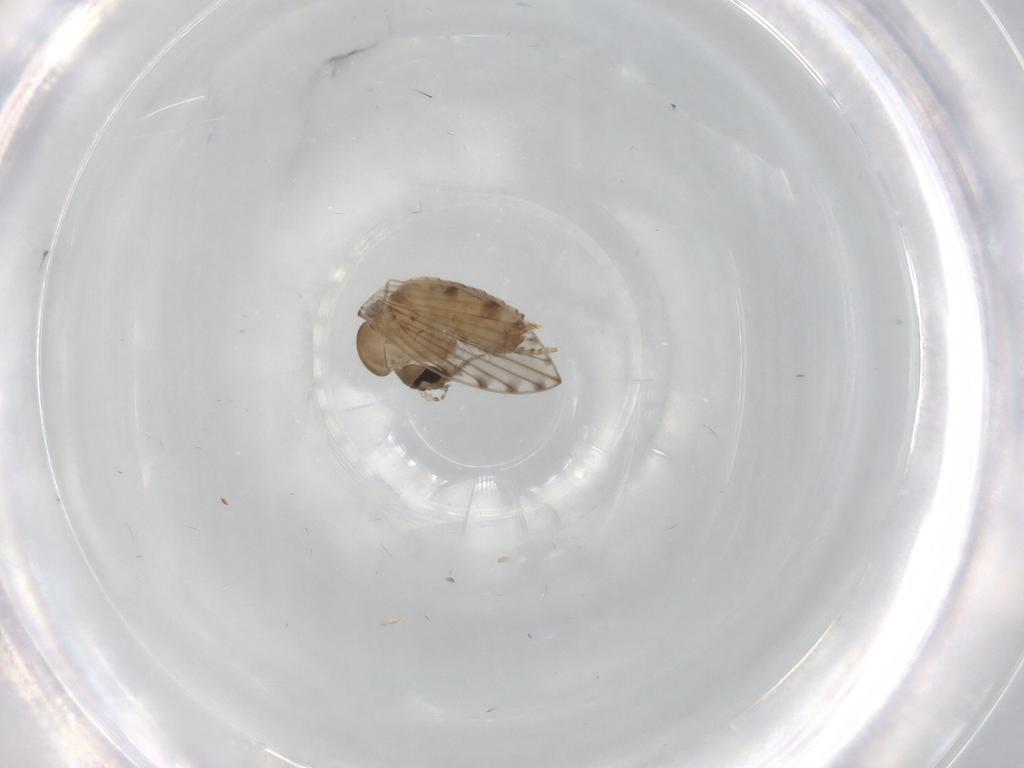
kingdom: Animalia
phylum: Arthropoda
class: Insecta
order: Diptera
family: Psychodidae
